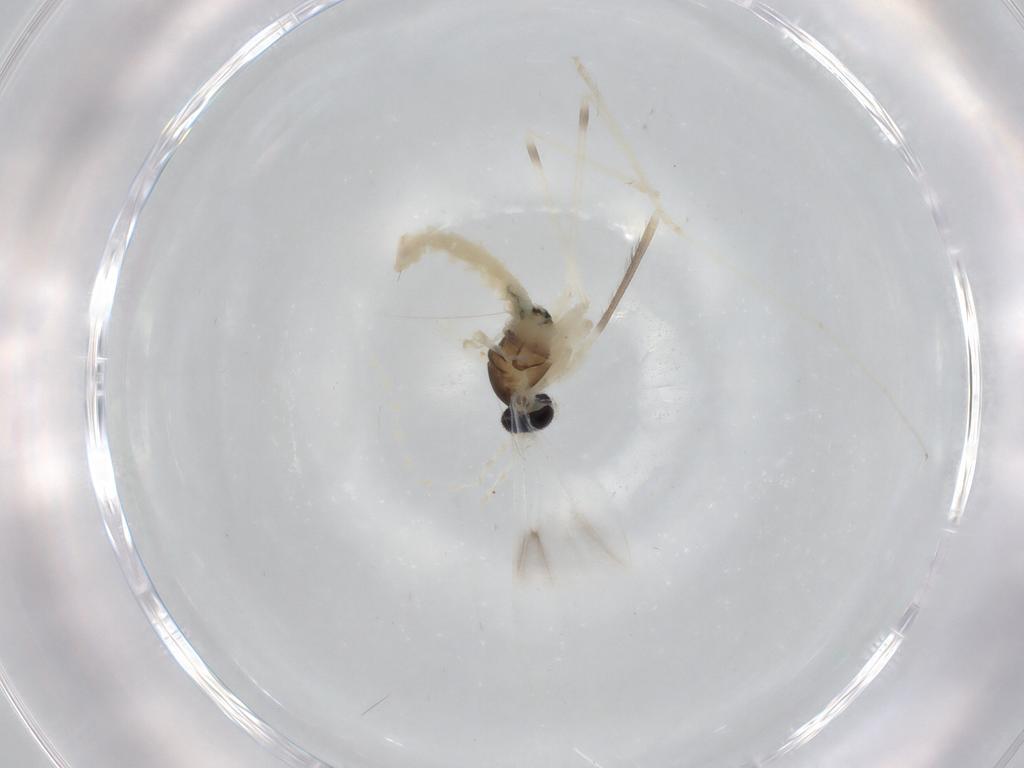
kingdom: Animalia
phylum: Arthropoda
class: Insecta
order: Diptera
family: Cecidomyiidae
